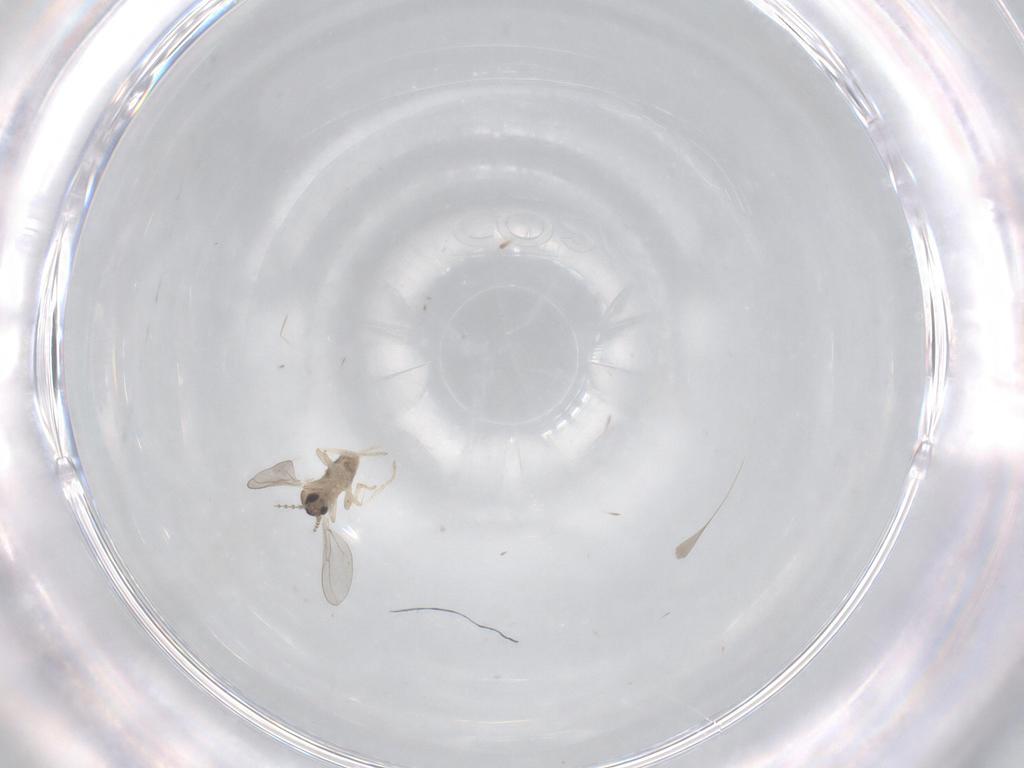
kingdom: Animalia
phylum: Arthropoda
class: Insecta
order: Diptera
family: Cecidomyiidae
